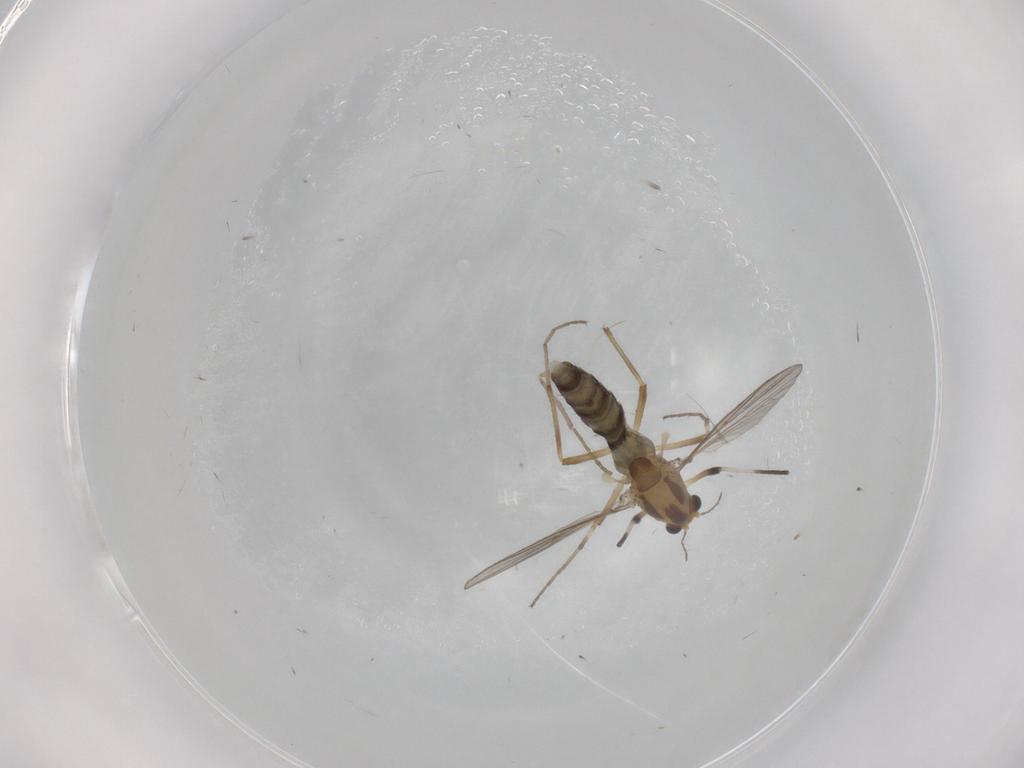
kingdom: Animalia
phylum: Arthropoda
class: Insecta
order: Diptera
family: Chironomidae
